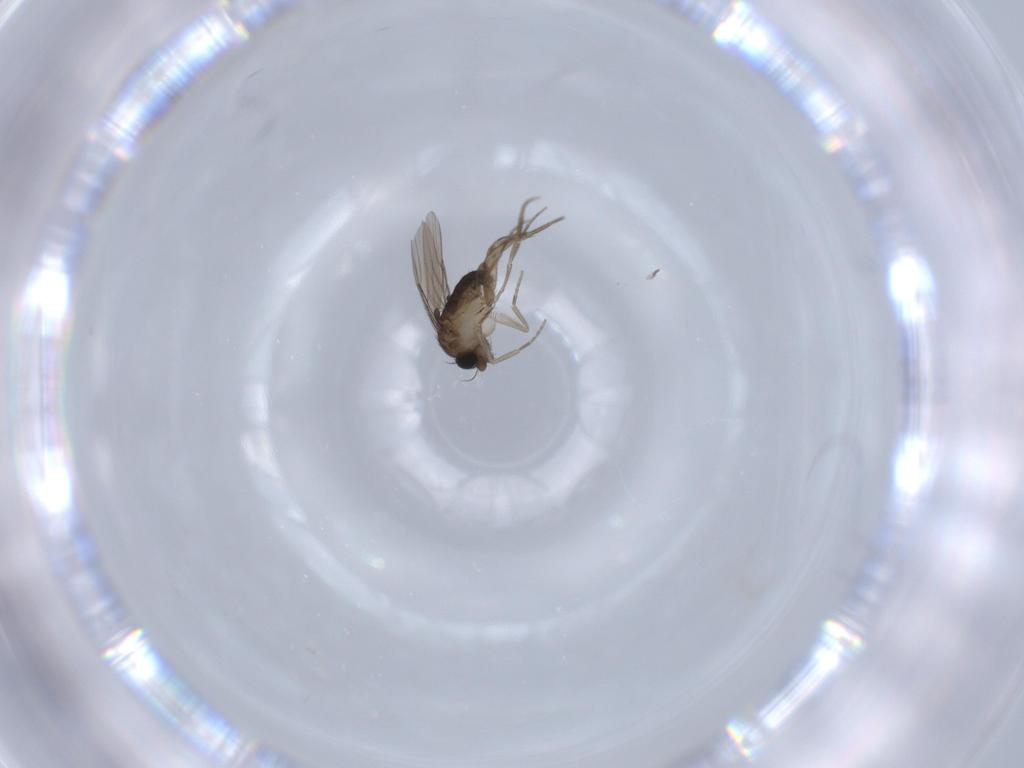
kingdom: Animalia
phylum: Arthropoda
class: Insecta
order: Diptera
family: Phoridae
